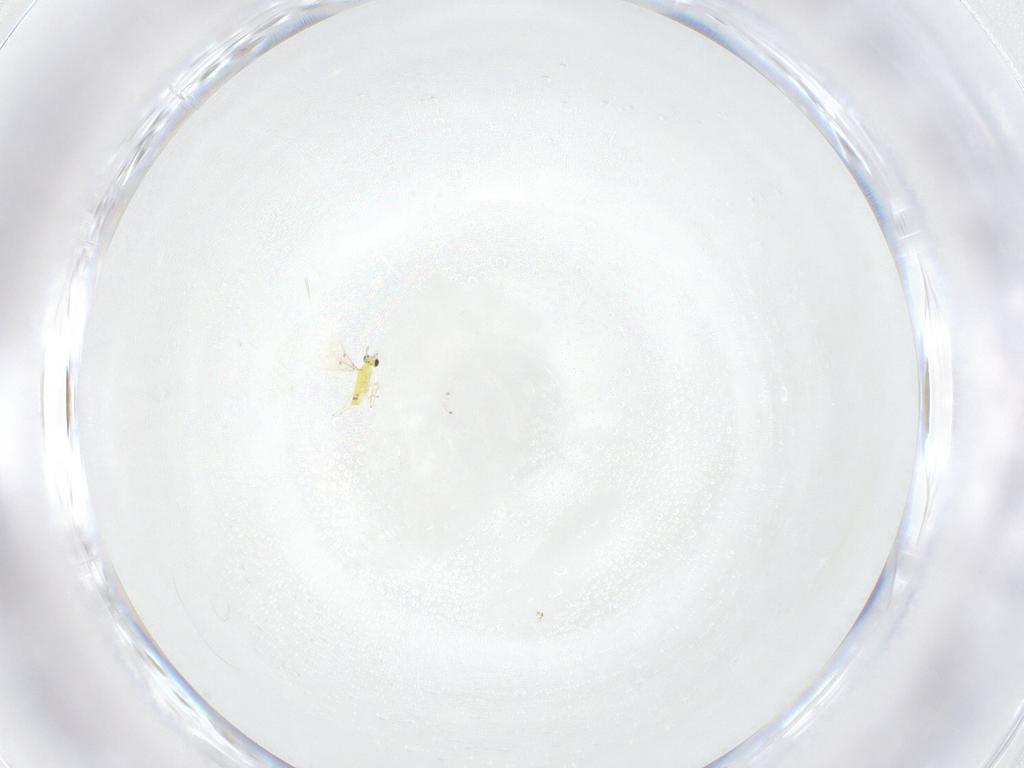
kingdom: Animalia
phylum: Arthropoda
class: Insecta
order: Hymenoptera
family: Trichogrammatidae
